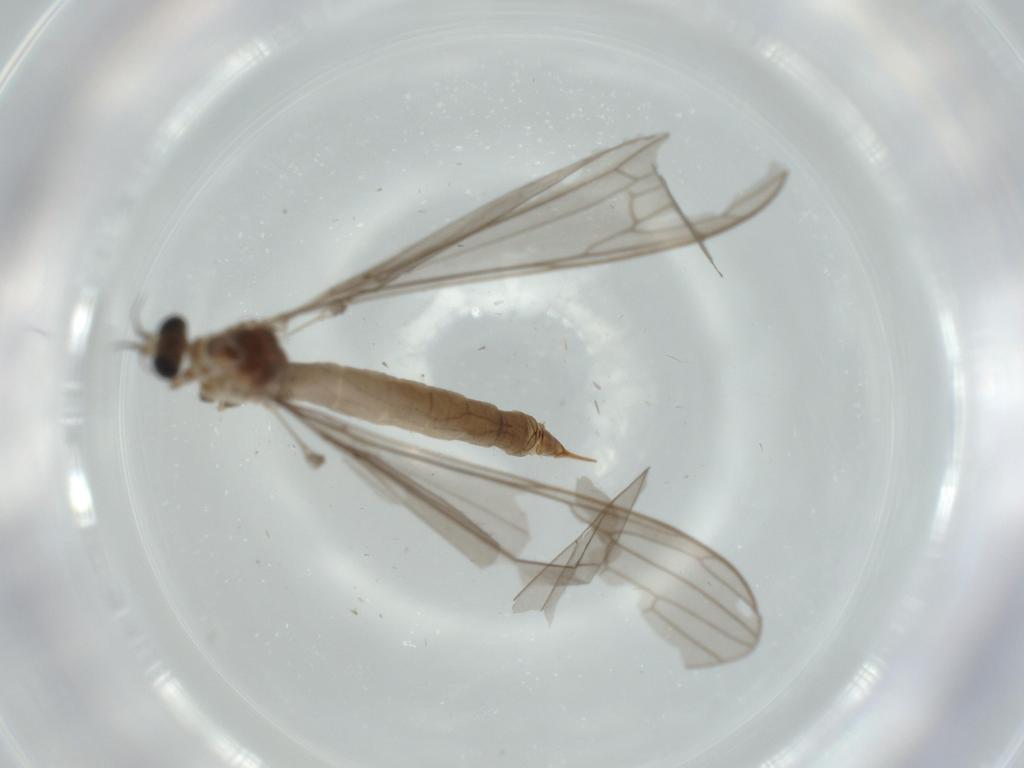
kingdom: Animalia
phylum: Arthropoda
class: Insecta
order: Diptera
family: Limoniidae
